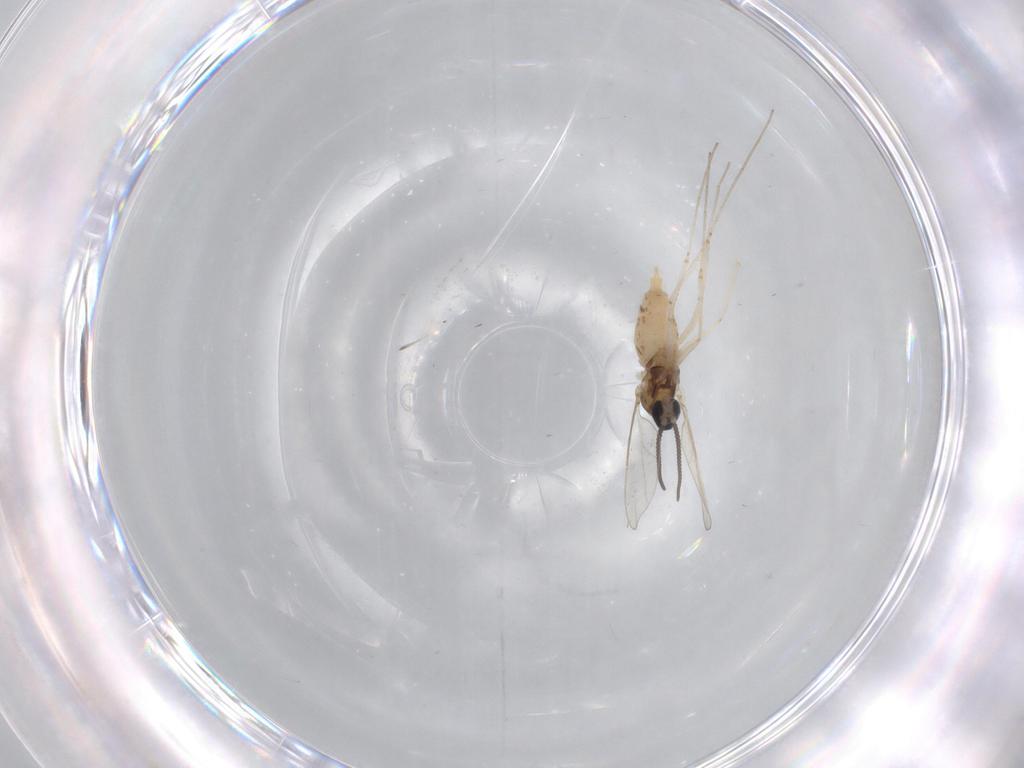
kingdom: Animalia
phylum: Arthropoda
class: Insecta
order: Diptera
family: Cecidomyiidae
